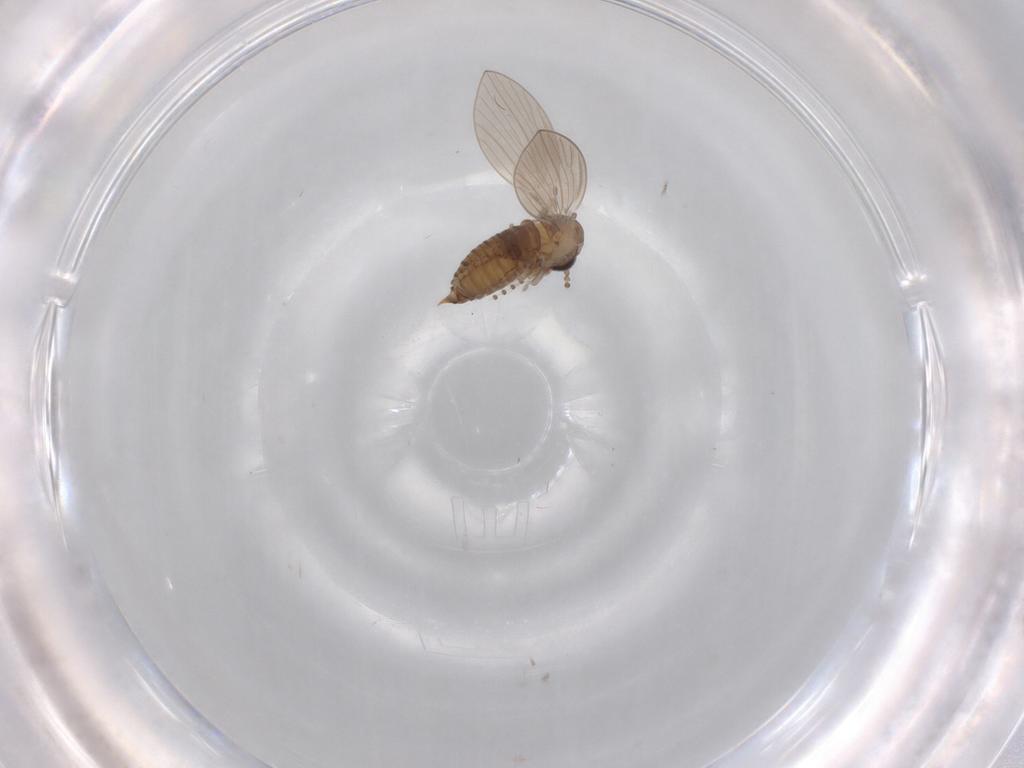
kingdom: Animalia
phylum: Arthropoda
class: Insecta
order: Diptera
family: Psychodidae
